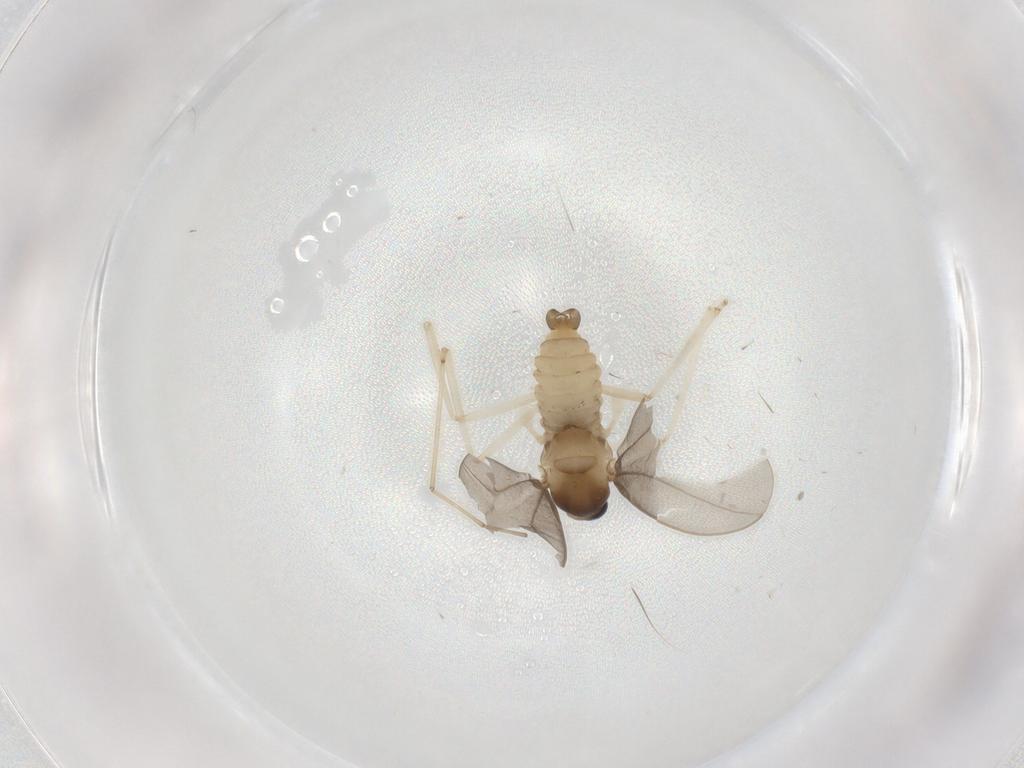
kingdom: Animalia
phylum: Arthropoda
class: Insecta
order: Diptera
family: Cecidomyiidae
